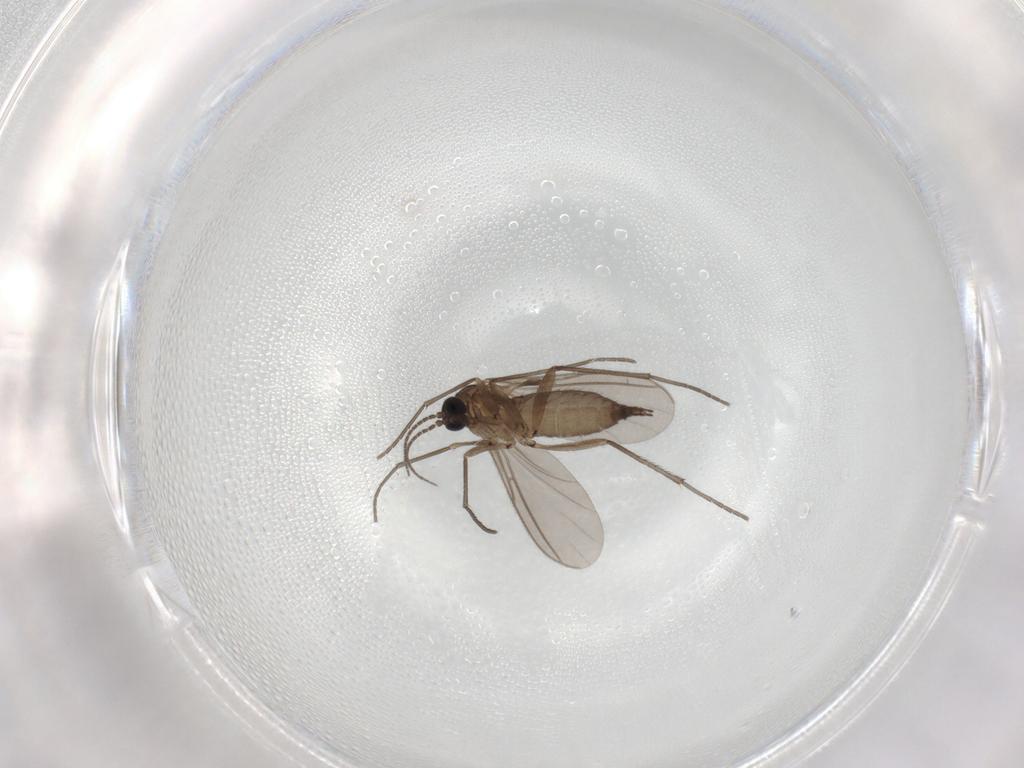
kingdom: Animalia
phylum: Arthropoda
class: Insecta
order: Diptera
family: Sciaridae
